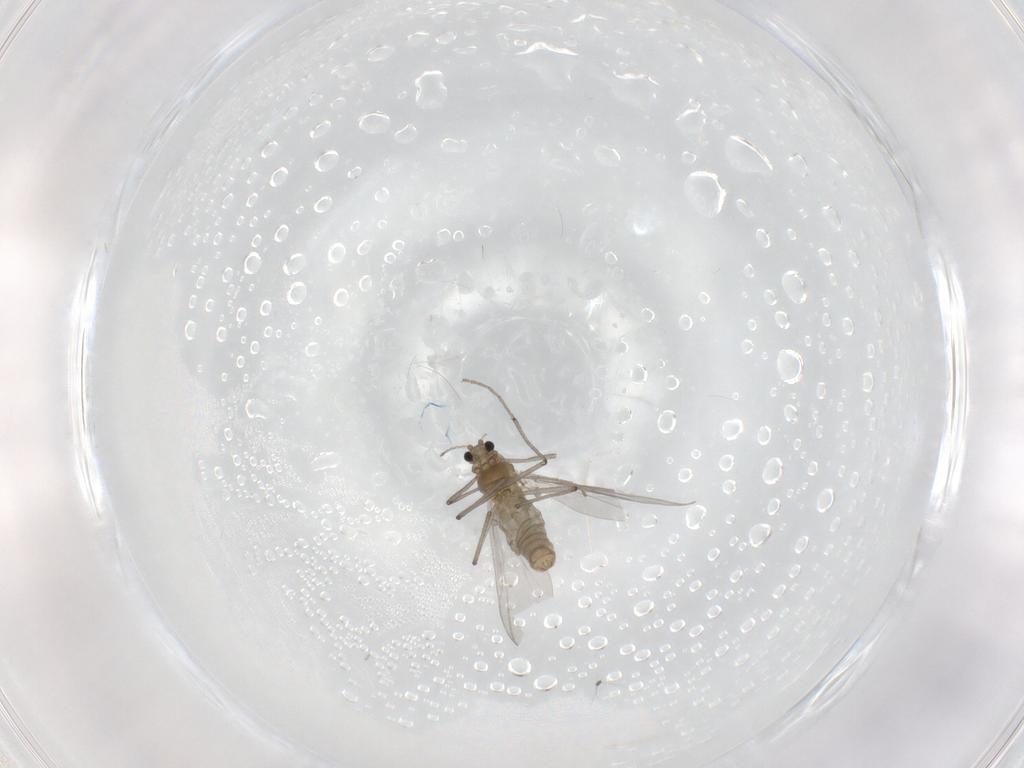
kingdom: Animalia
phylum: Arthropoda
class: Insecta
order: Diptera
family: Chironomidae
